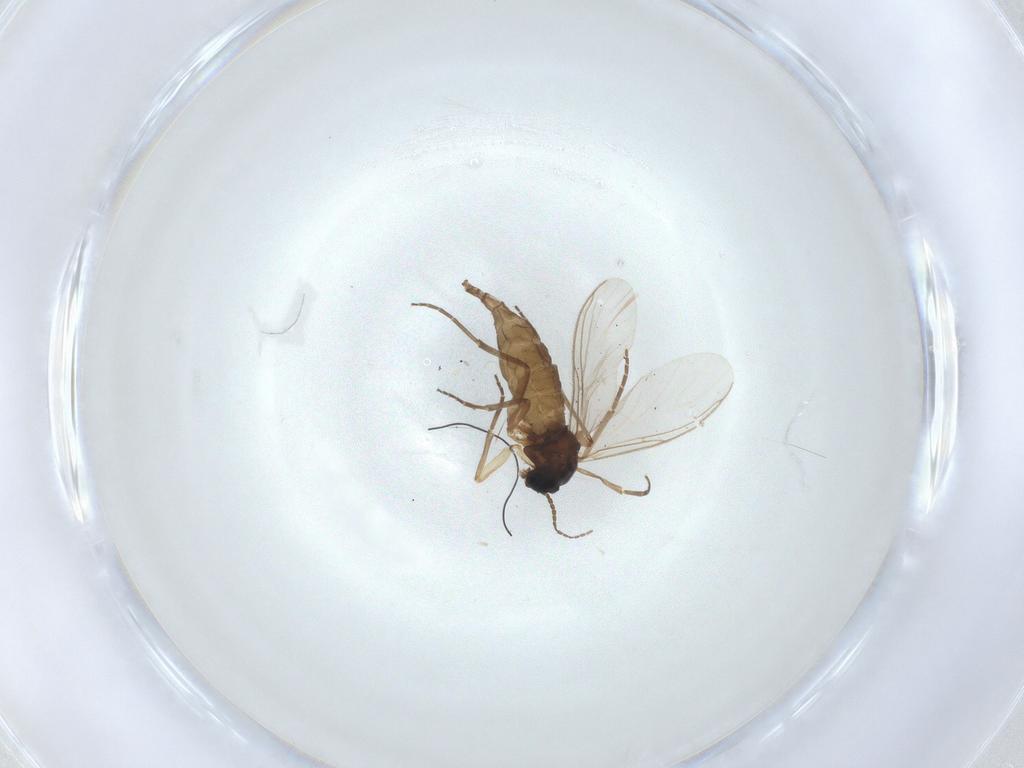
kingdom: Animalia
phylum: Arthropoda
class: Insecta
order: Diptera
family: Sciaridae
